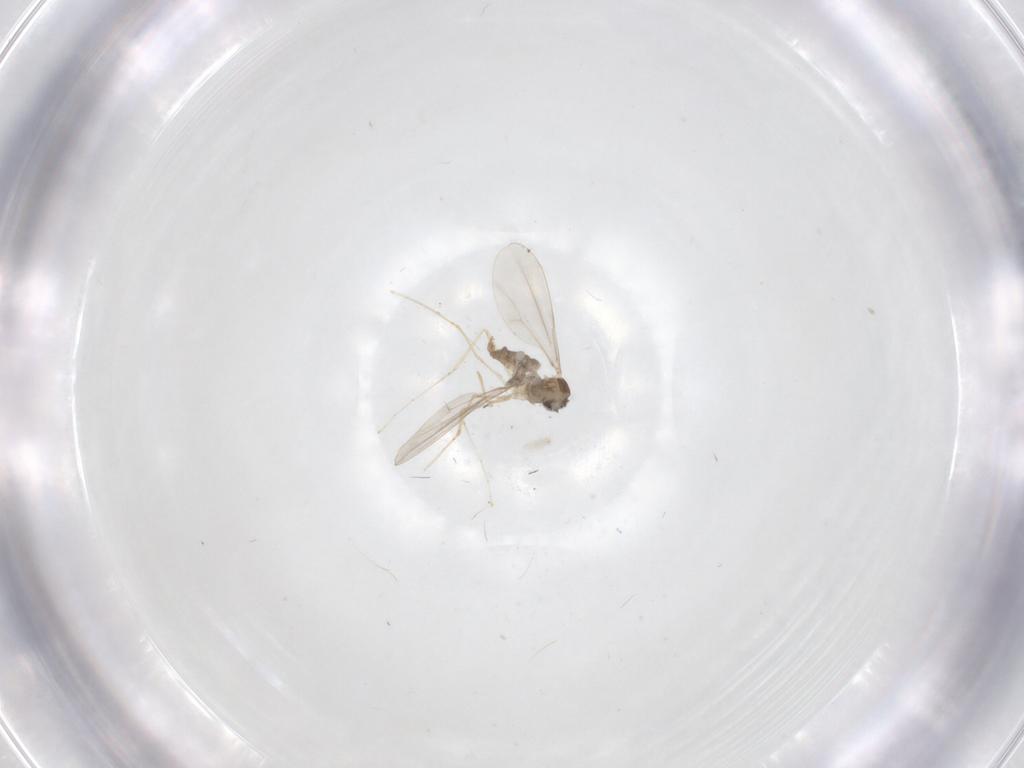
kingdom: Animalia
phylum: Arthropoda
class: Insecta
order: Diptera
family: Cecidomyiidae
